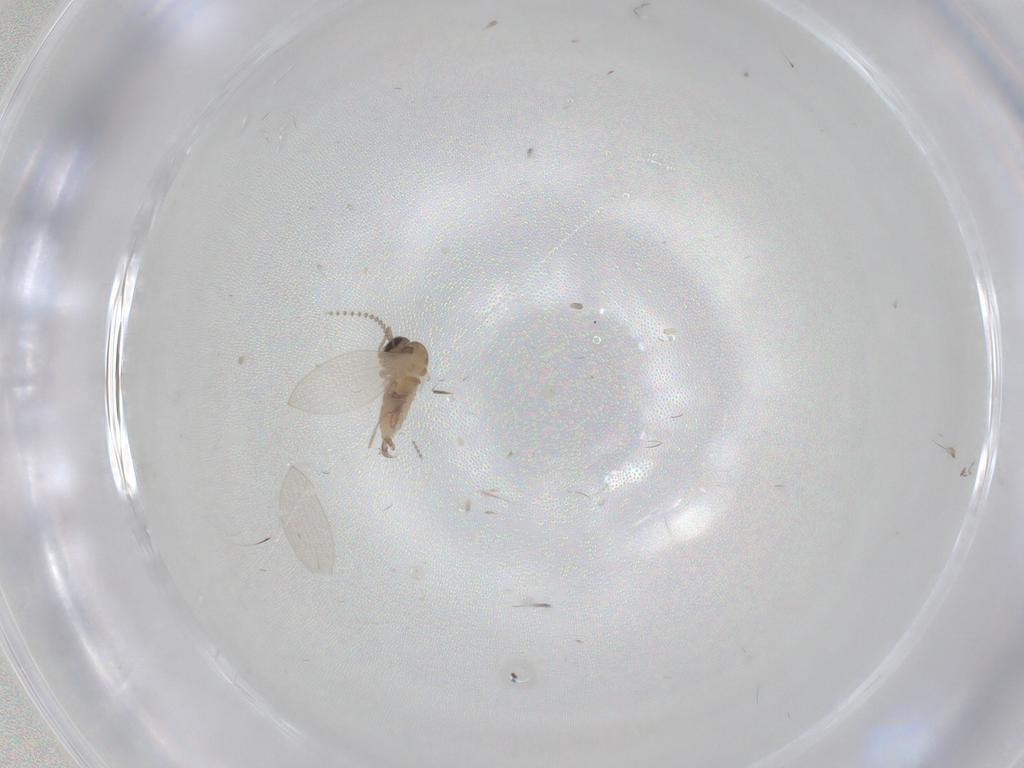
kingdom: Animalia
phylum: Arthropoda
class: Insecta
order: Diptera
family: Psychodidae
